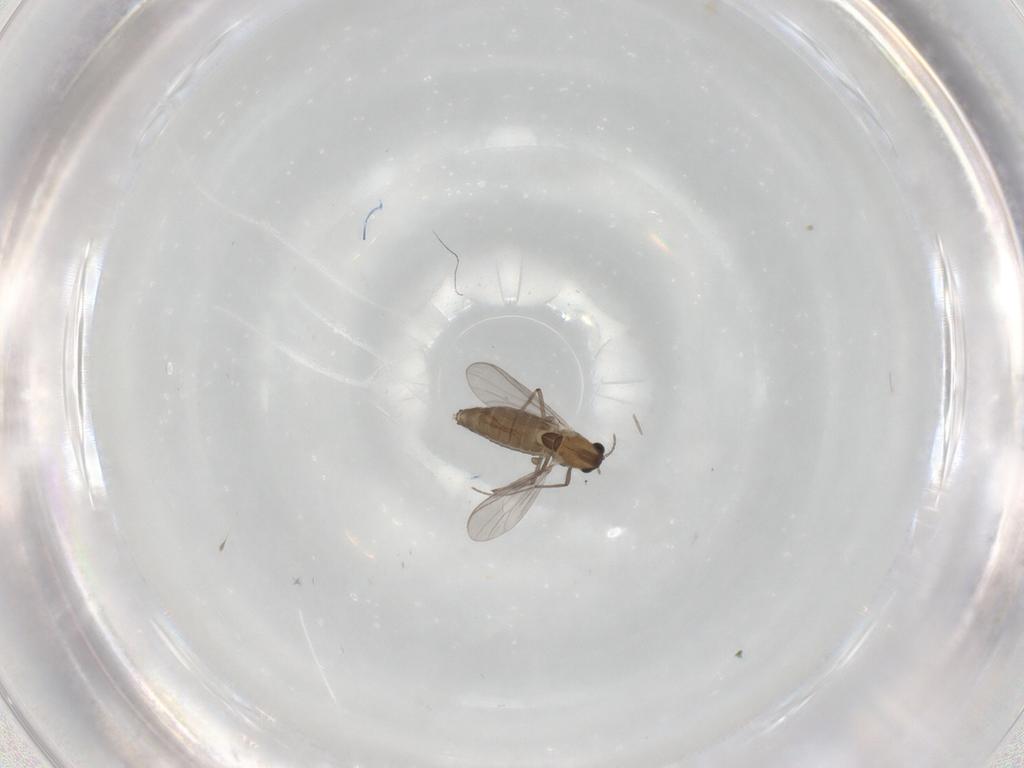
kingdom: Animalia
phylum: Arthropoda
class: Insecta
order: Diptera
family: Chironomidae
